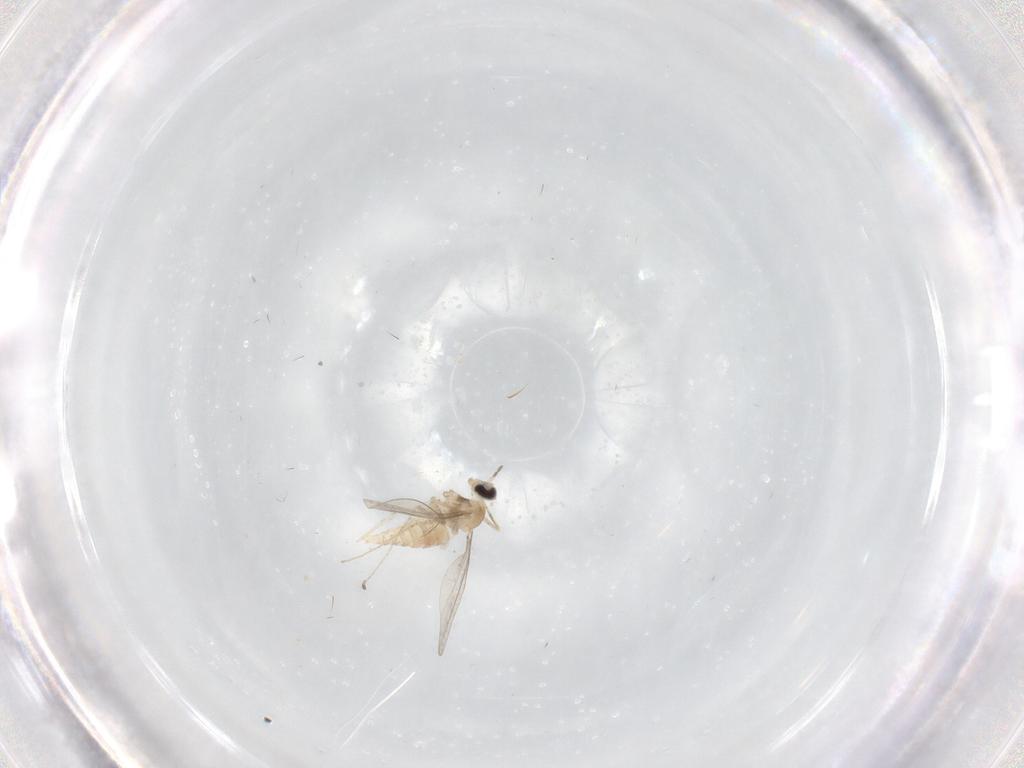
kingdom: Animalia
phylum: Arthropoda
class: Insecta
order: Diptera
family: Cecidomyiidae
